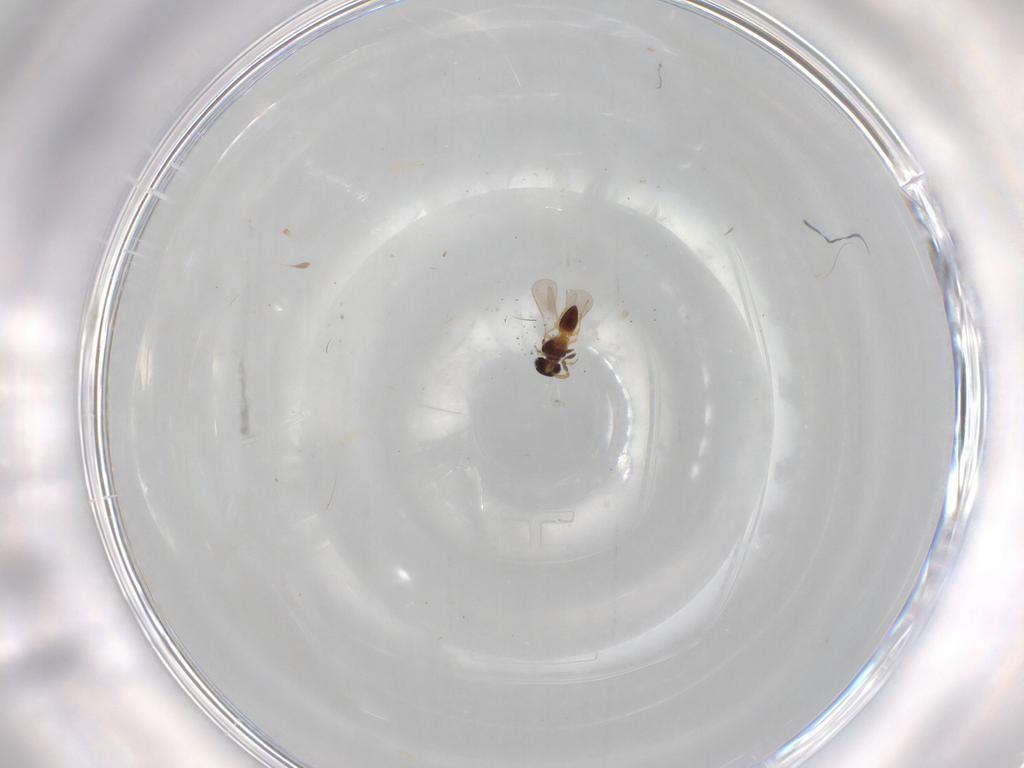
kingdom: Animalia
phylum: Arthropoda
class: Insecta
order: Hymenoptera
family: Platygastridae
